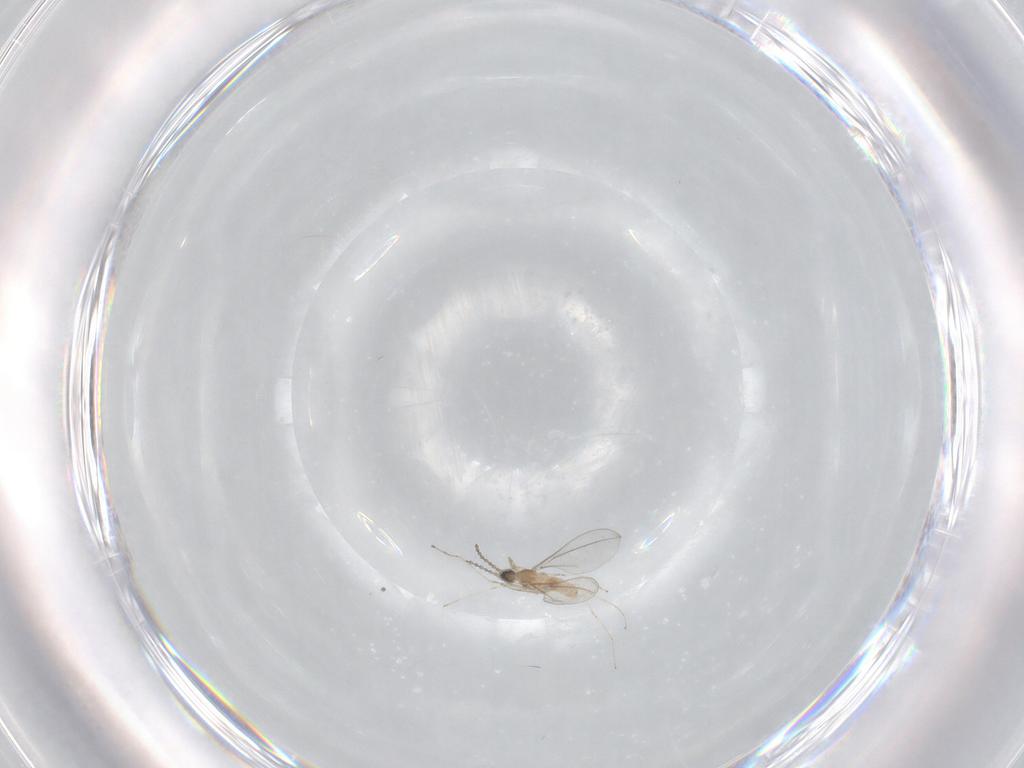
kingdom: Animalia
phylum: Arthropoda
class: Insecta
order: Diptera
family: Cecidomyiidae
